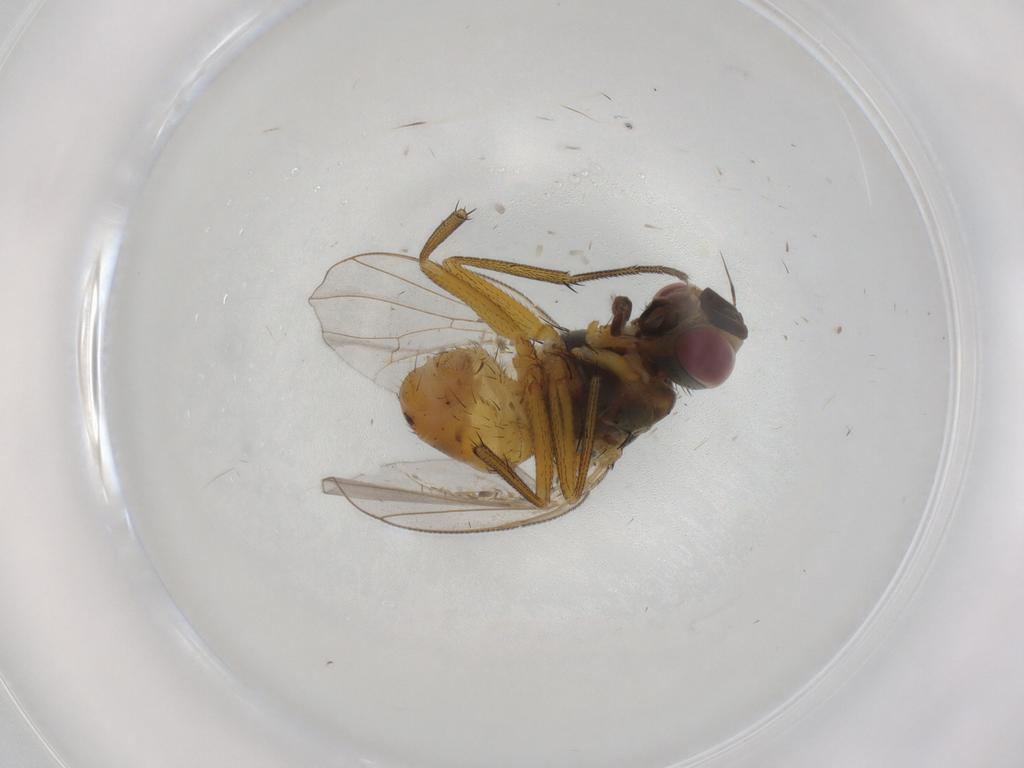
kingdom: Animalia
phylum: Arthropoda
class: Insecta
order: Diptera
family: Muscidae
